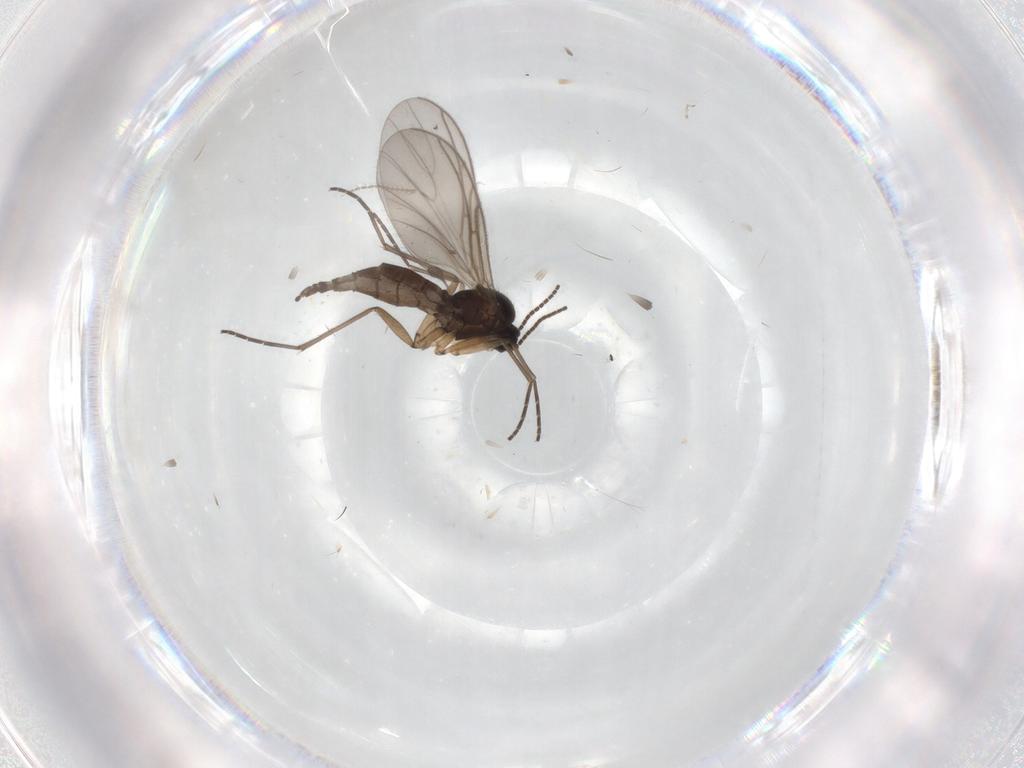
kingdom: Animalia
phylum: Arthropoda
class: Insecta
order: Diptera
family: Sciaridae
